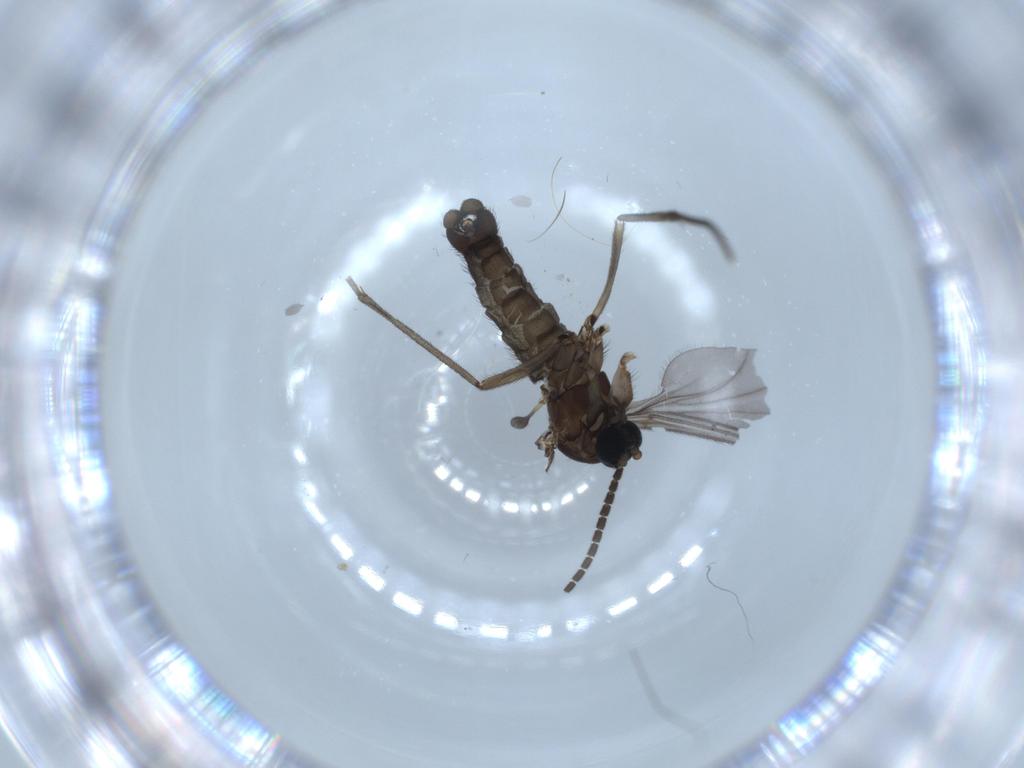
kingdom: Animalia
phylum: Arthropoda
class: Insecta
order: Diptera
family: Sciaridae
